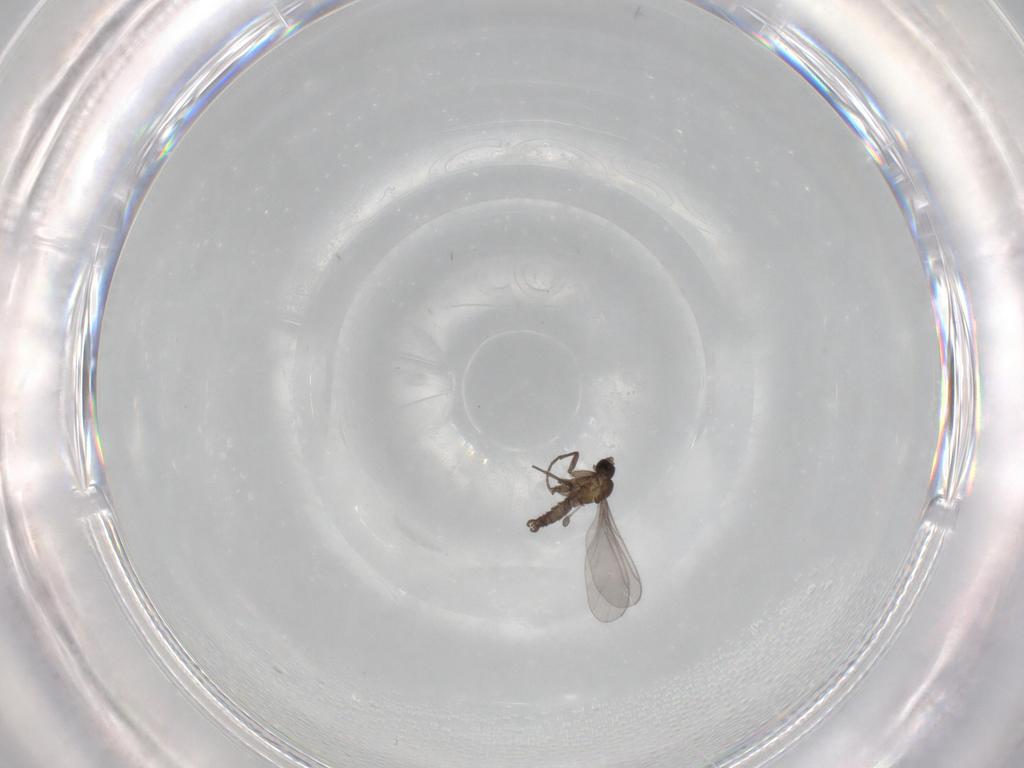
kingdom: Animalia
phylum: Arthropoda
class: Insecta
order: Diptera
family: Sciaridae
